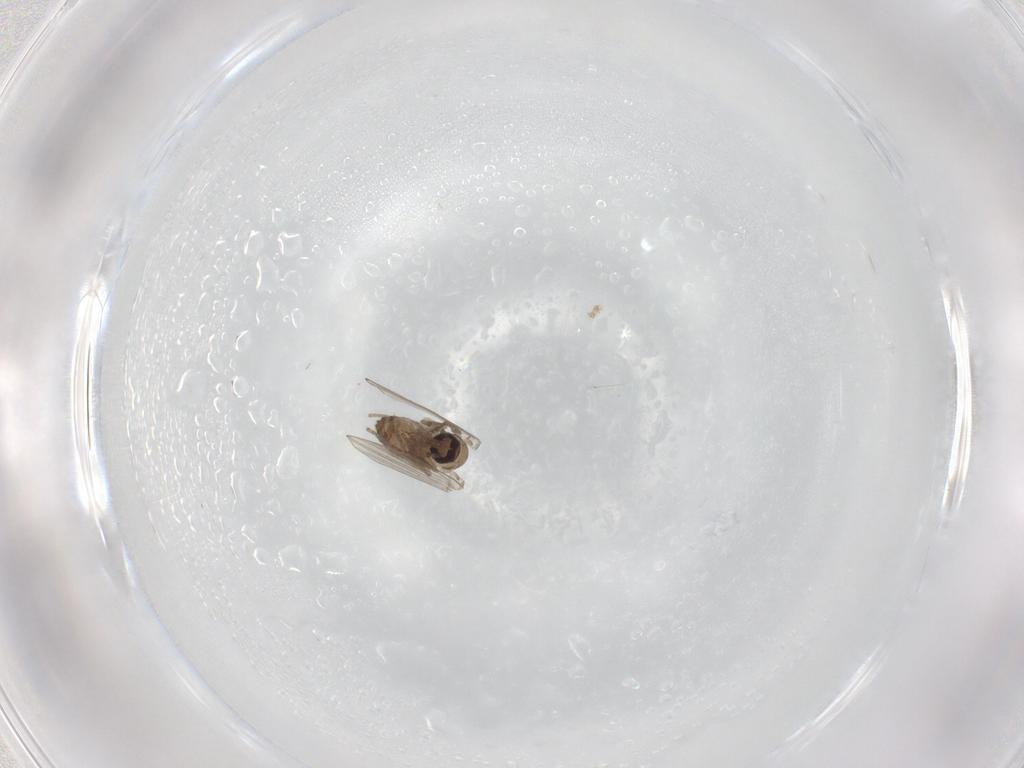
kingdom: Animalia
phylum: Arthropoda
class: Insecta
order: Diptera
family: Psychodidae
